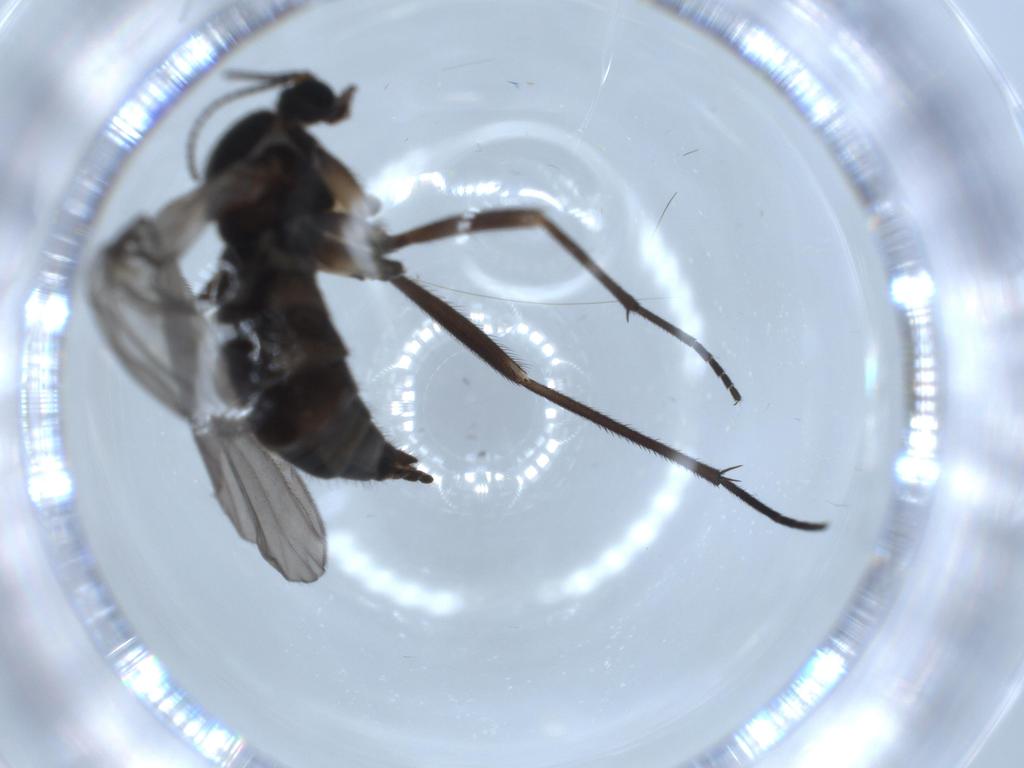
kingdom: Animalia
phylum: Arthropoda
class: Insecta
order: Diptera
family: Sciaridae
